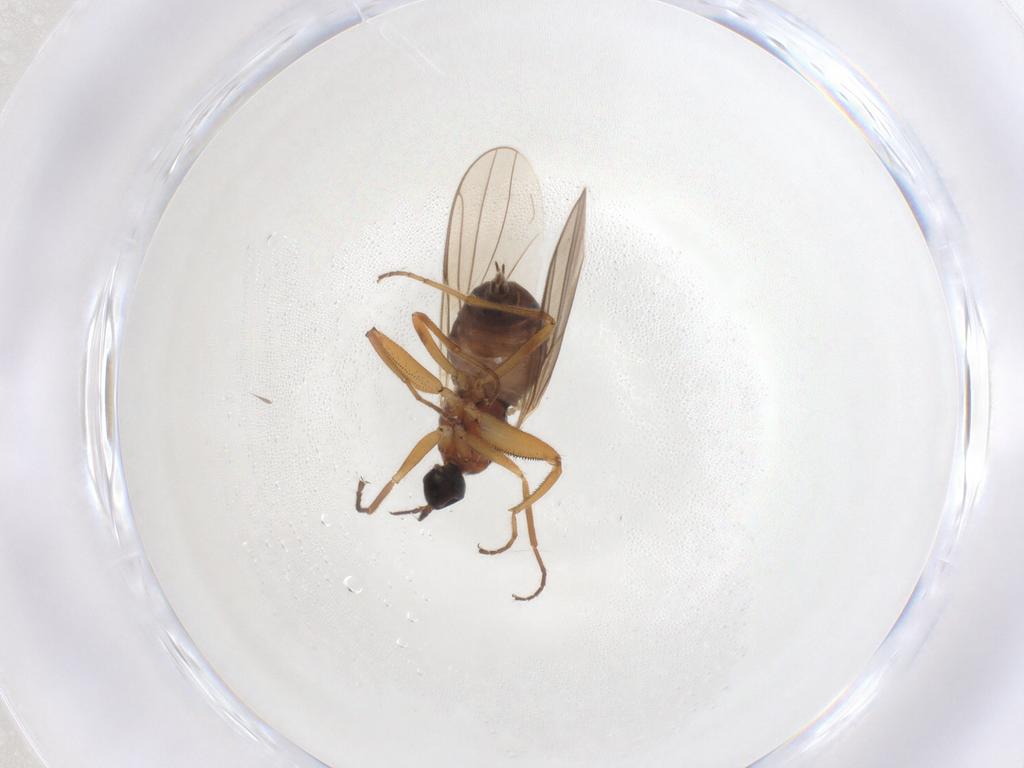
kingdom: Animalia
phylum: Arthropoda
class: Insecta
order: Diptera
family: Hybotidae
